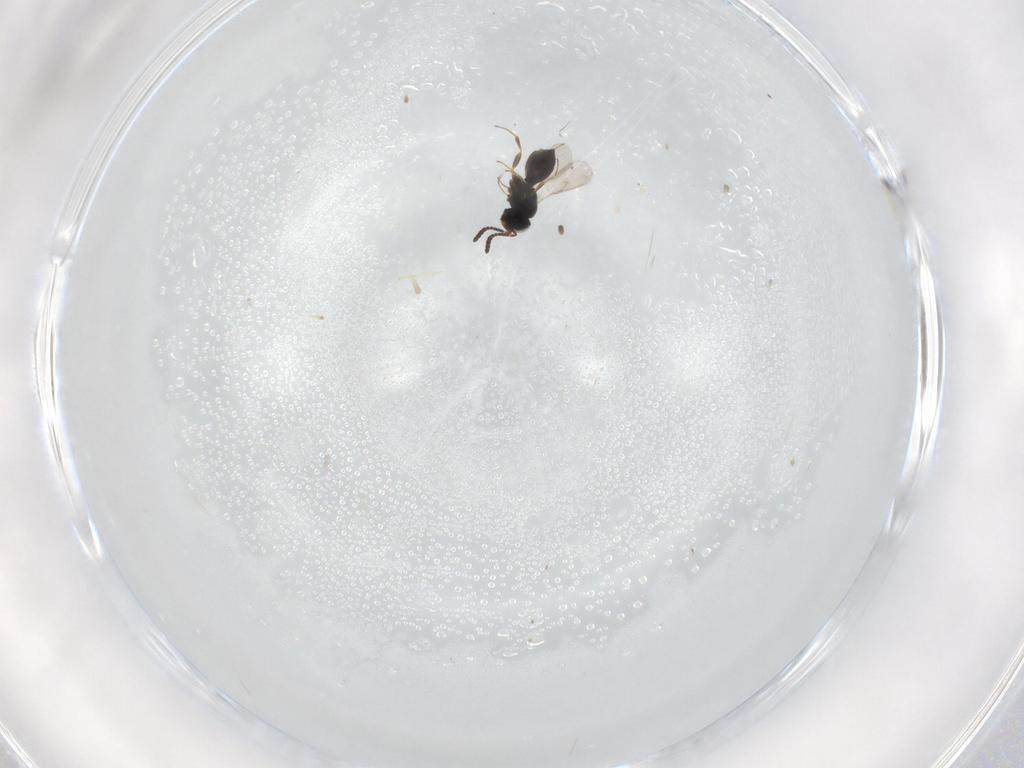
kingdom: Animalia
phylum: Arthropoda
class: Insecta
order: Hymenoptera
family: Scelionidae
